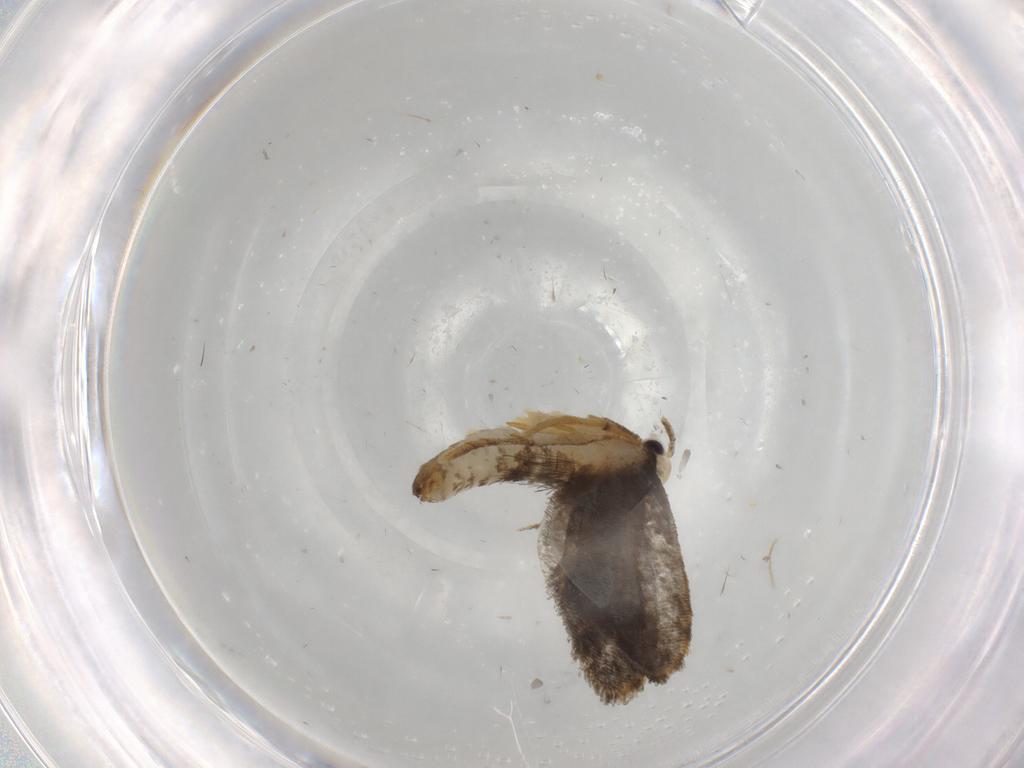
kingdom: Animalia
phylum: Arthropoda
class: Insecta
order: Lepidoptera
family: Psychidae
